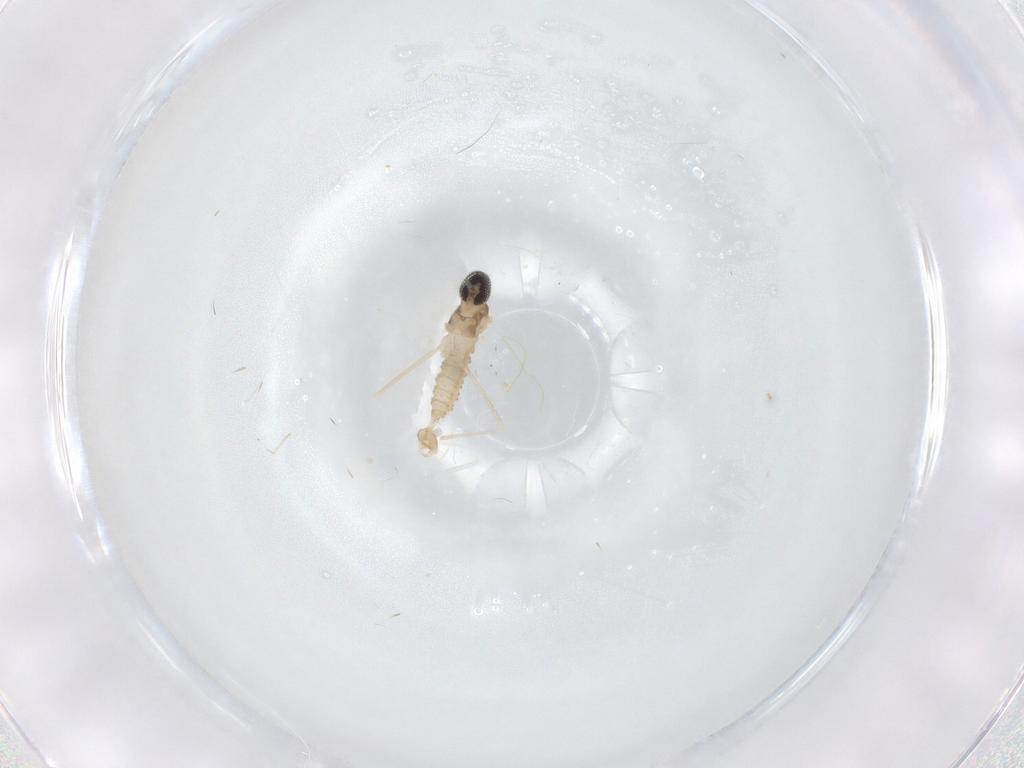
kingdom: Animalia
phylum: Arthropoda
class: Insecta
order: Diptera
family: Cecidomyiidae
